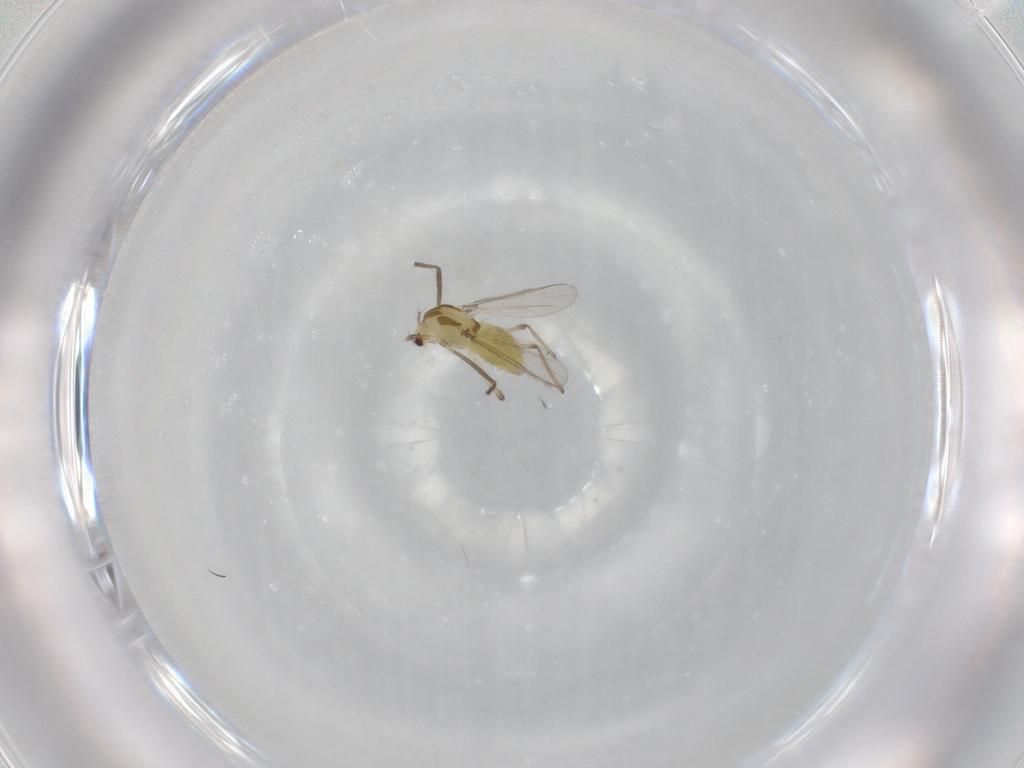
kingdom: Animalia
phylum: Arthropoda
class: Insecta
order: Diptera
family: Chironomidae
